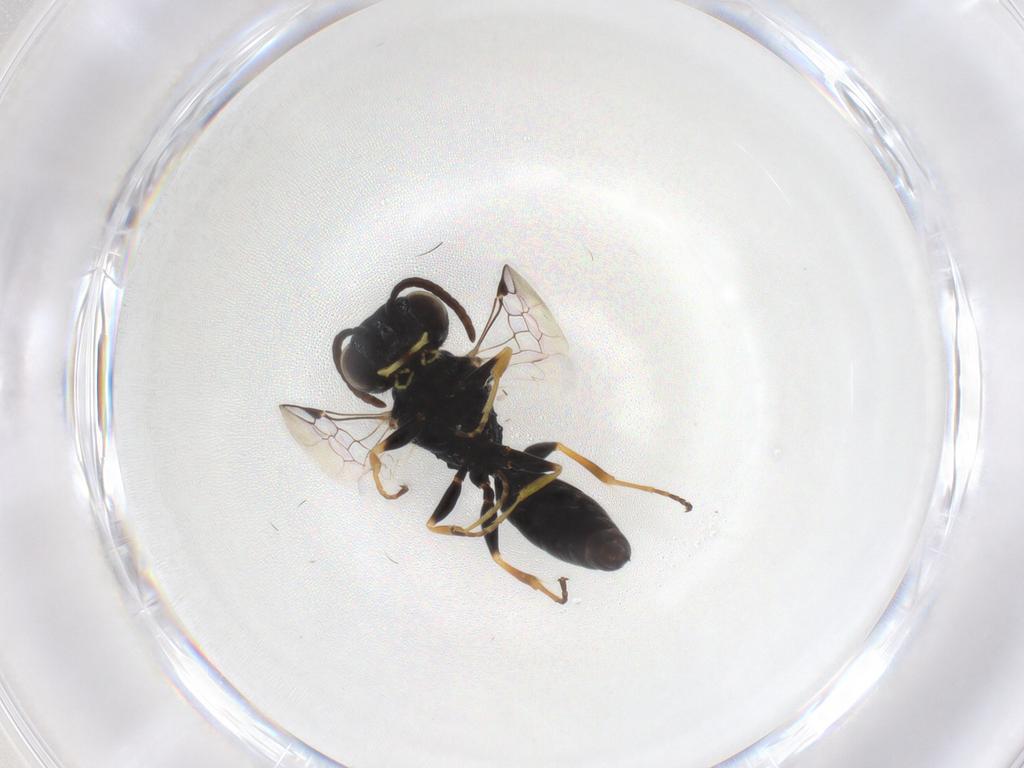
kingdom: Animalia
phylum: Arthropoda
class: Insecta
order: Hymenoptera
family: Pemphredonidae
